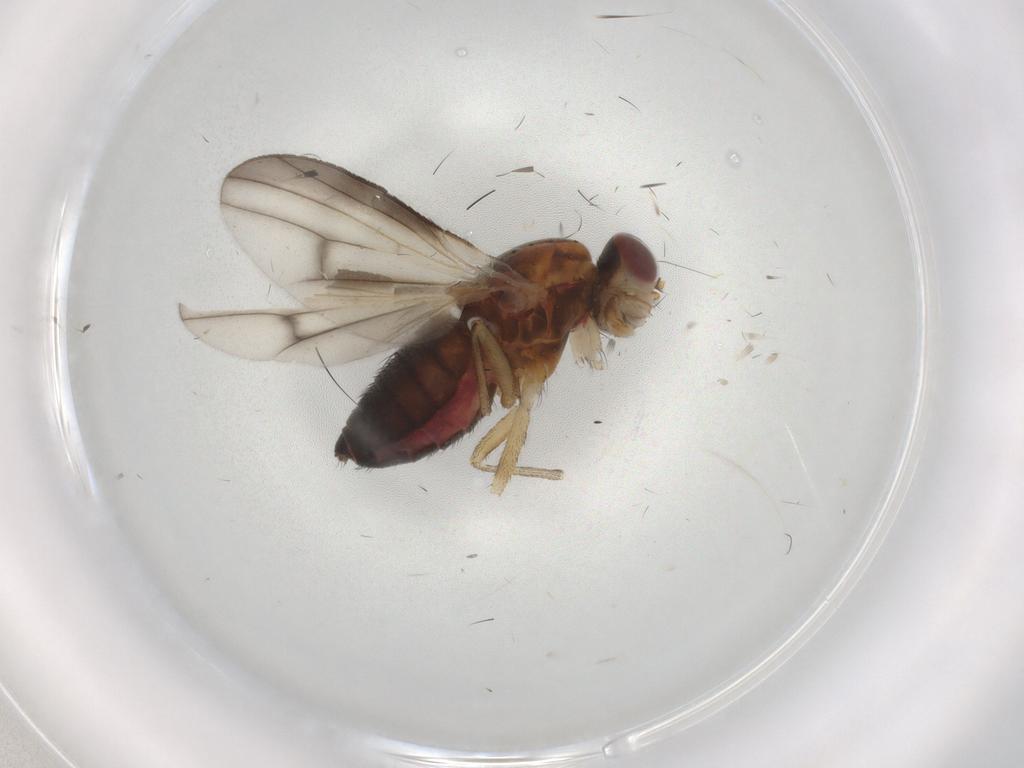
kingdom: Animalia
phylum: Arthropoda
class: Insecta
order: Diptera
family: Heleomyzidae
